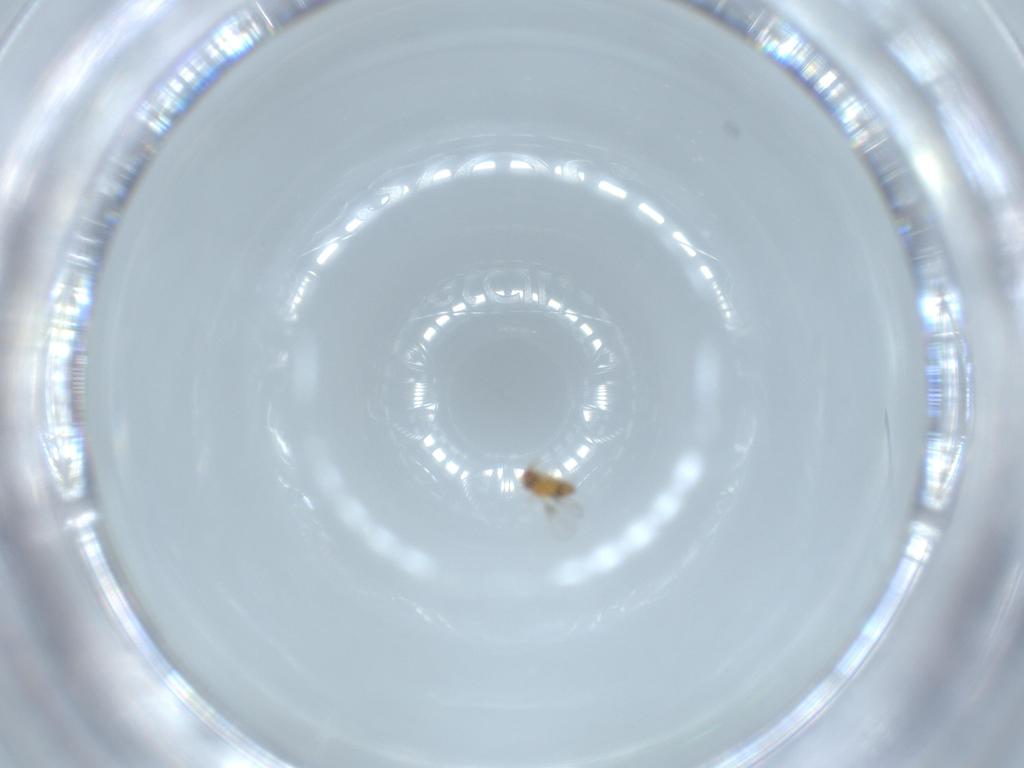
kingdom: Animalia
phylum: Arthropoda
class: Insecta
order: Hymenoptera
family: Trichogrammatidae
